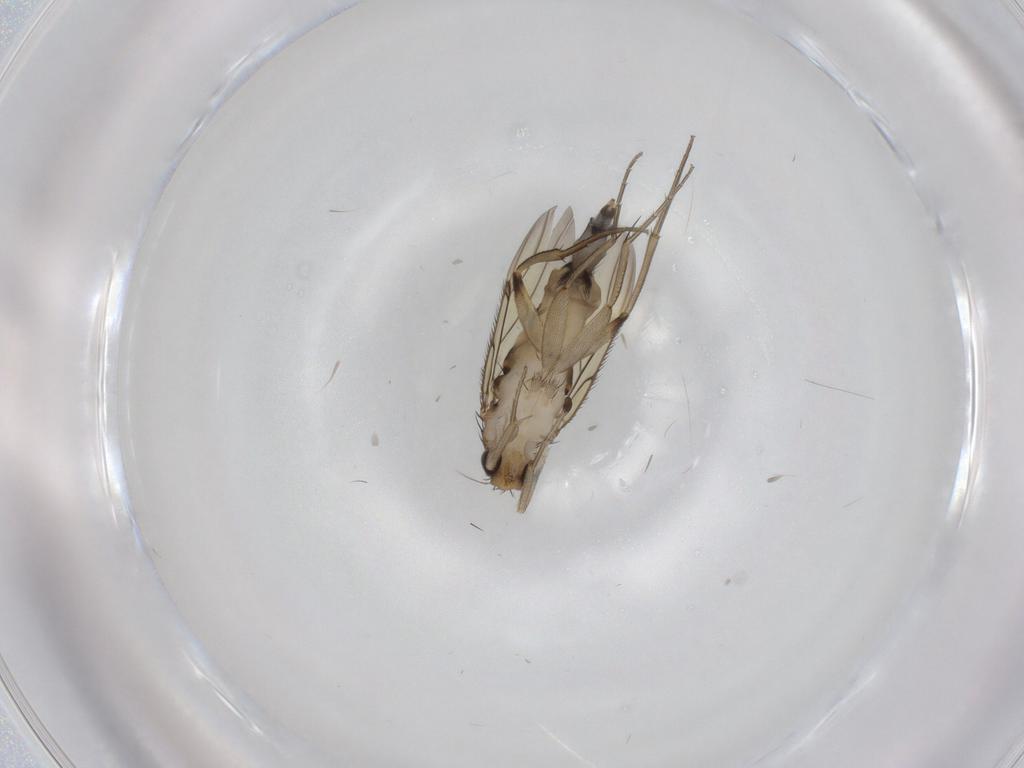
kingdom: Animalia
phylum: Arthropoda
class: Insecta
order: Diptera
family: Phoridae
